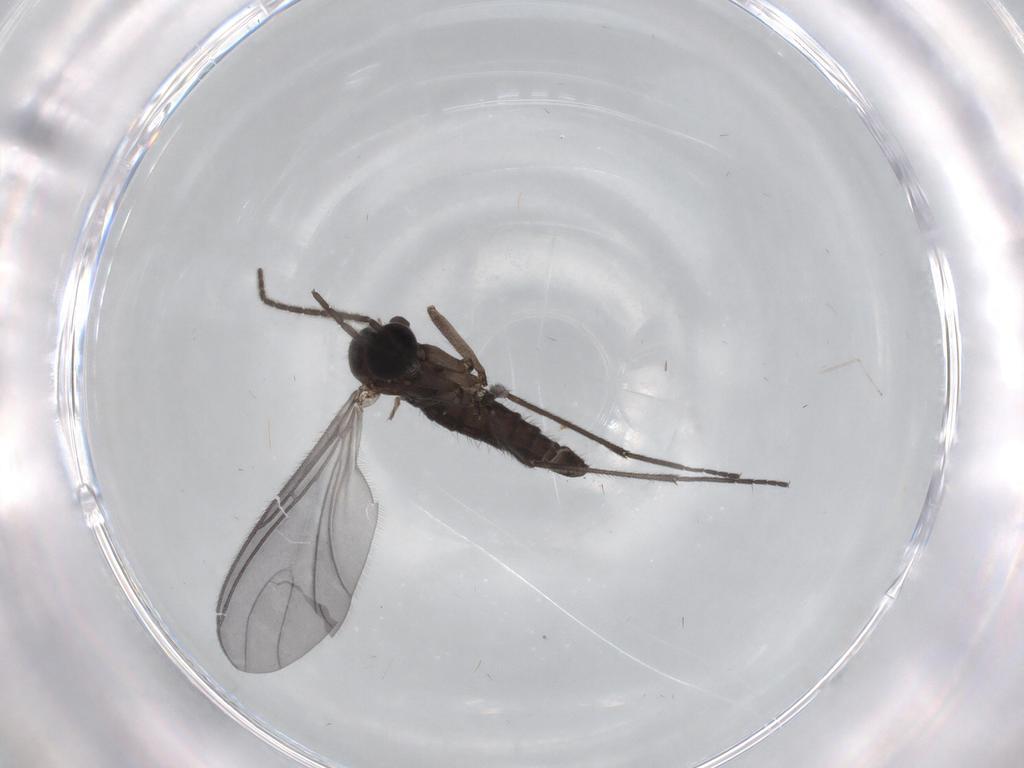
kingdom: Animalia
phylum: Arthropoda
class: Insecta
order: Diptera
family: Sciaridae
